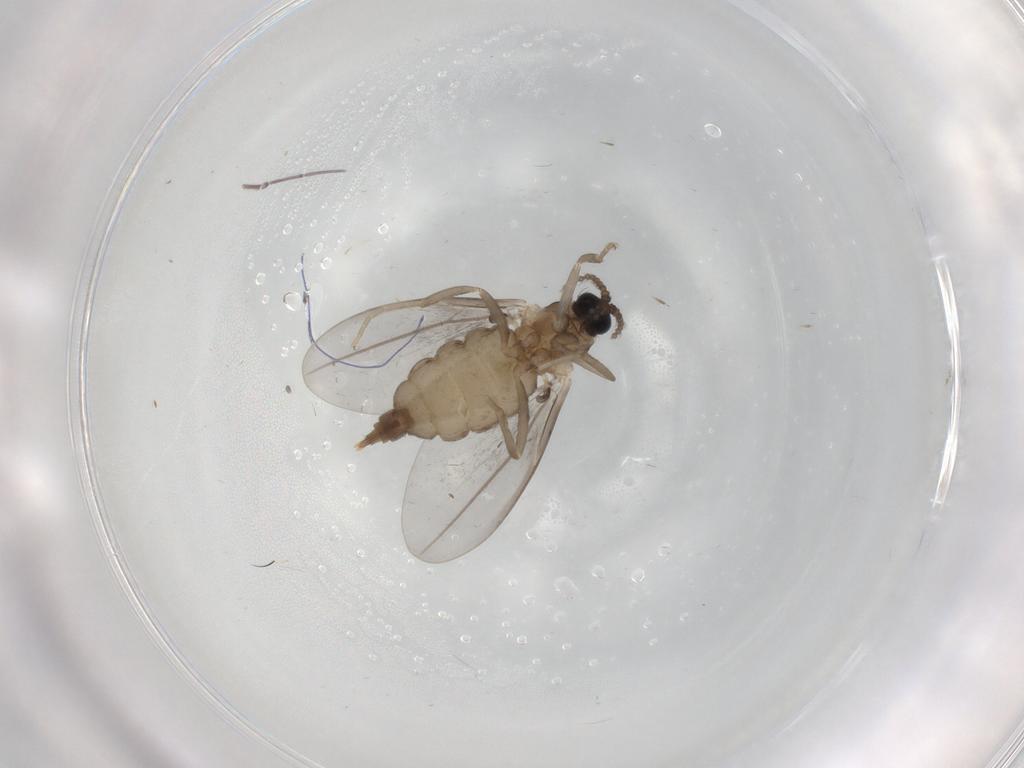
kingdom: Animalia
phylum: Arthropoda
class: Insecta
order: Diptera
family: Cecidomyiidae
